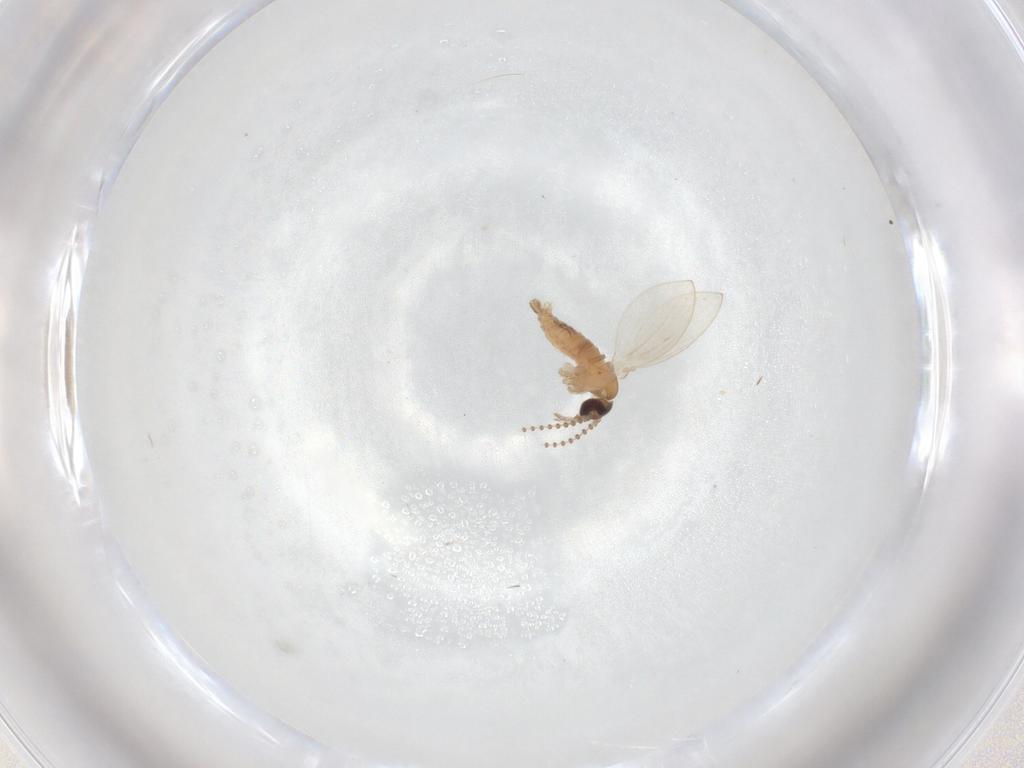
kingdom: Animalia
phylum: Arthropoda
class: Insecta
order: Diptera
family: Psychodidae
